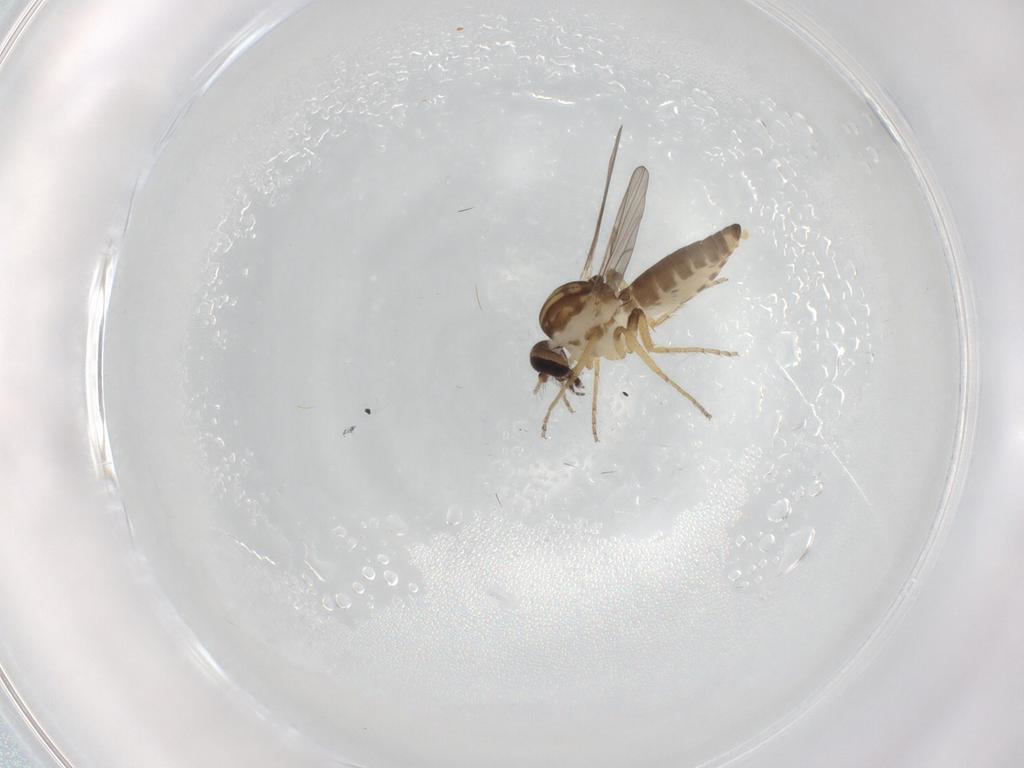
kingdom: Animalia
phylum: Arthropoda
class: Insecta
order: Diptera
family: Chironomidae
